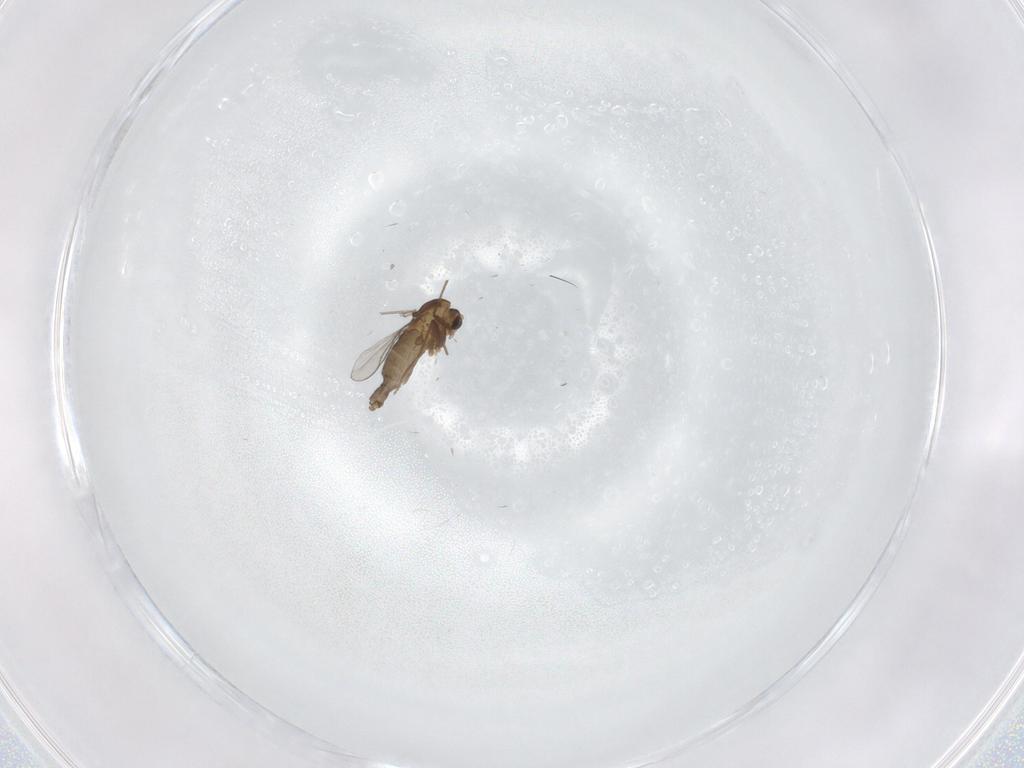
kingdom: Animalia
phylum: Arthropoda
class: Insecta
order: Diptera
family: Chironomidae
